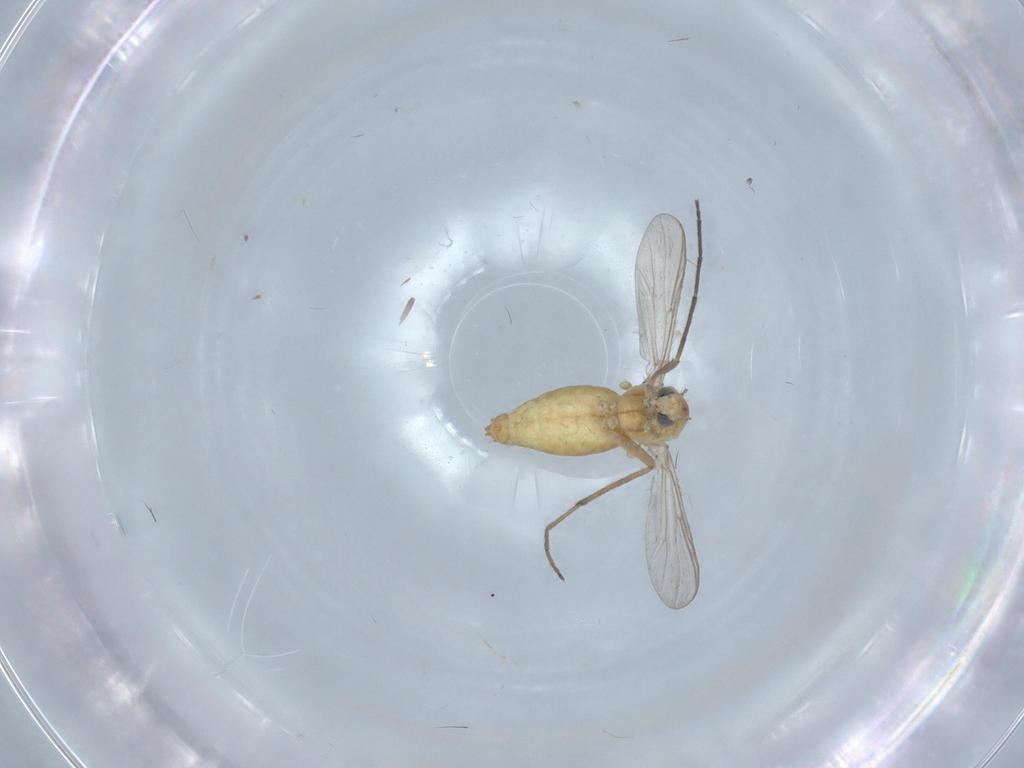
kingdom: Animalia
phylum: Arthropoda
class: Insecta
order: Diptera
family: Chironomidae
